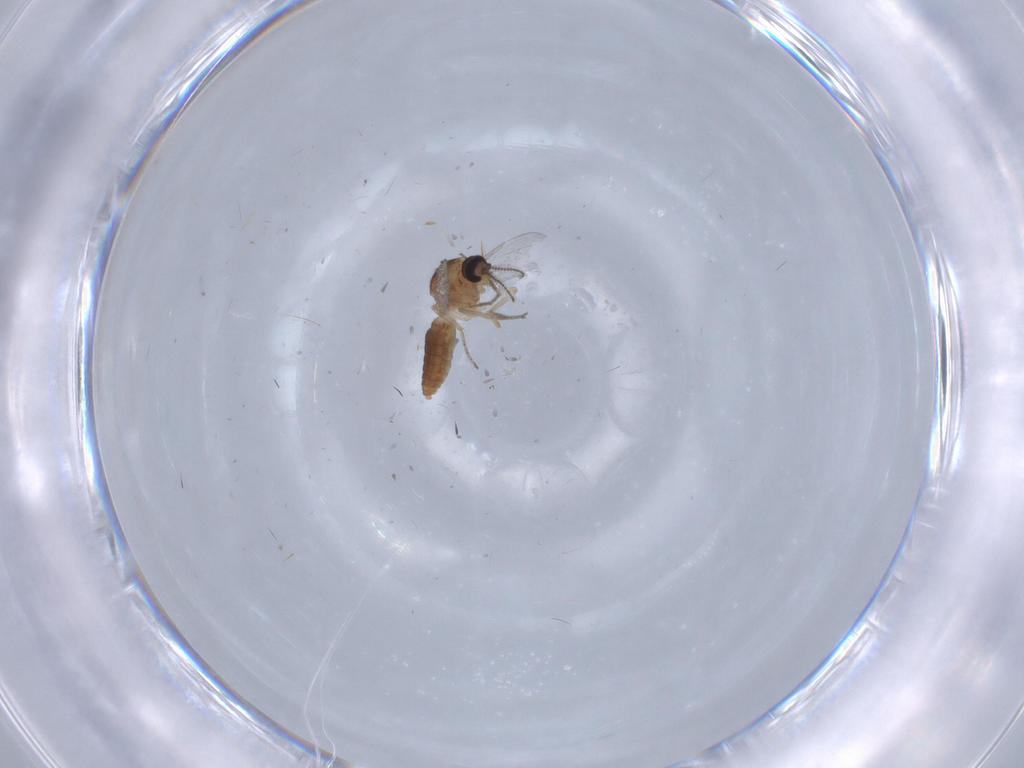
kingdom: Animalia
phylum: Arthropoda
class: Insecta
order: Diptera
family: Ceratopogonidae
